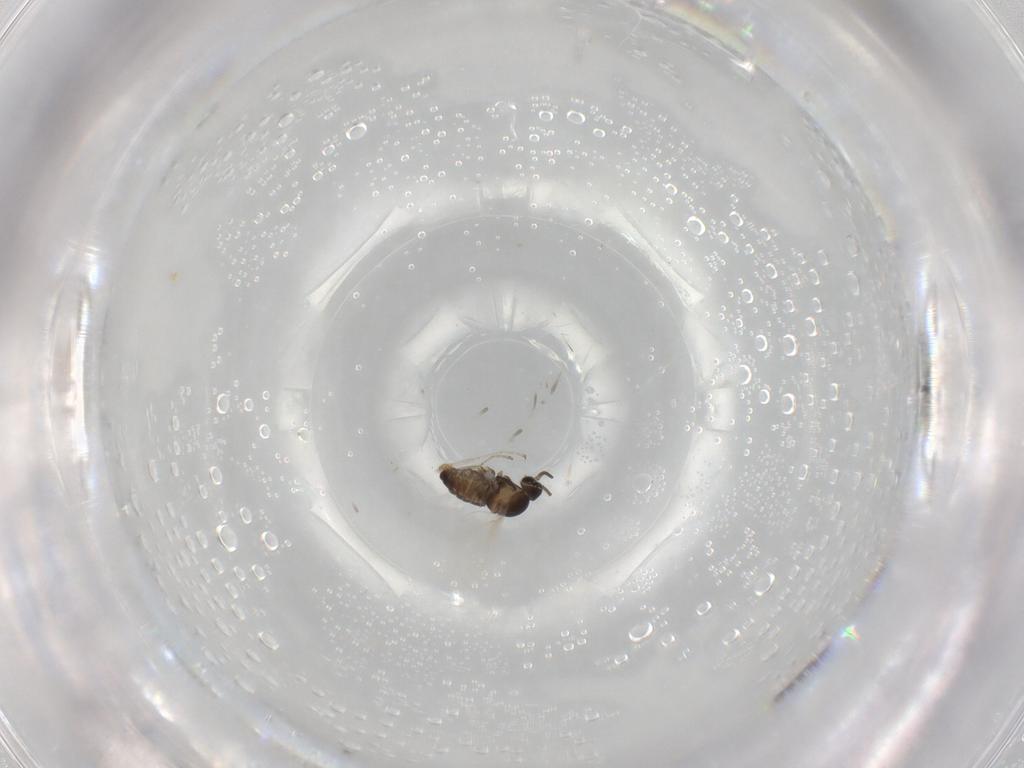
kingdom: Animalia
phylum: Arthropoda
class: Insecta
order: Diptera
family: Cecidomyiidae
